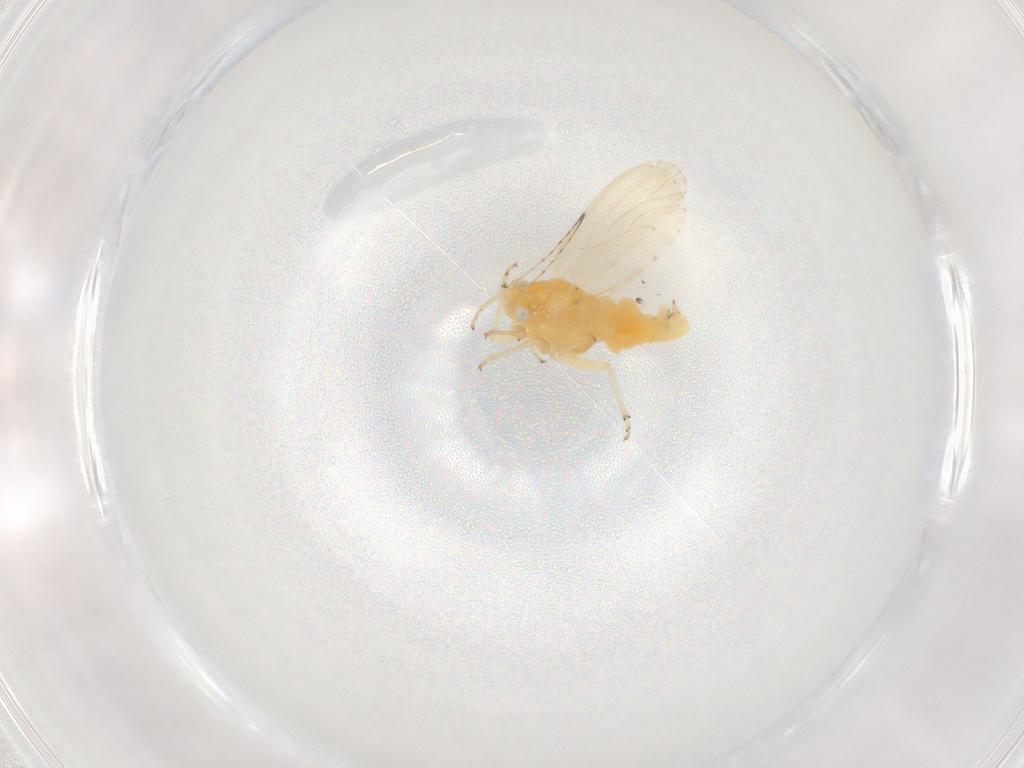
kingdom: Animalia
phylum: Arthropoda
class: Insecta
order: Hemiptera
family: Psyllidae
